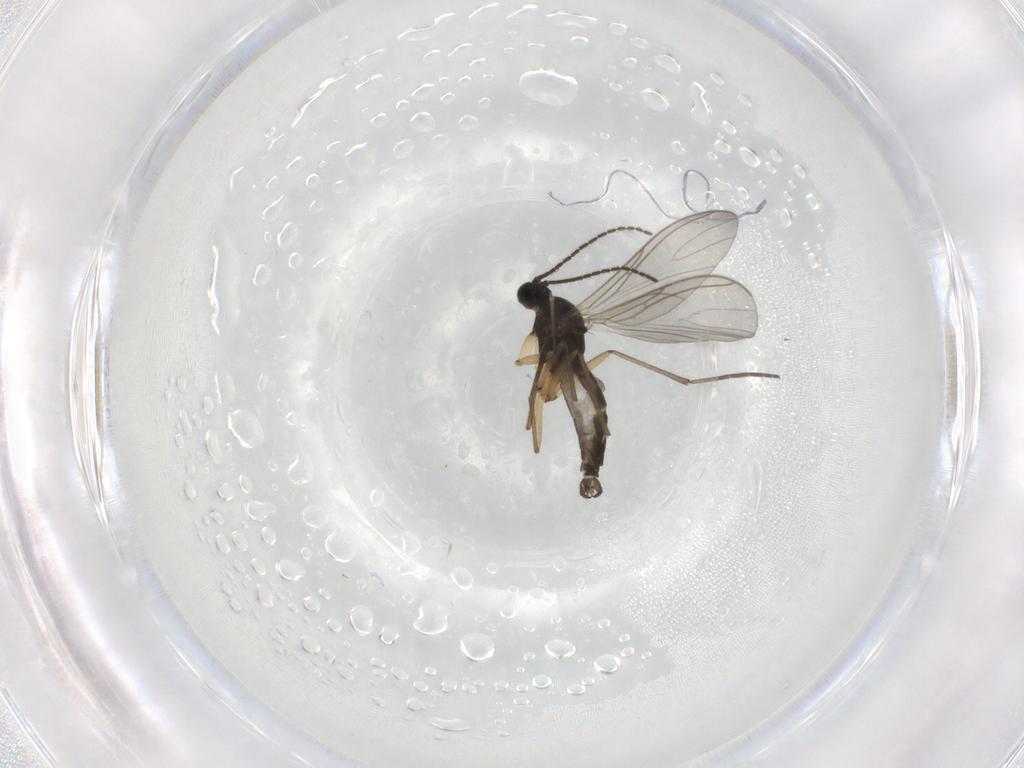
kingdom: Animalia
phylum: Arthropoda
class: Insecta
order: Diptera
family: Sciaridae
